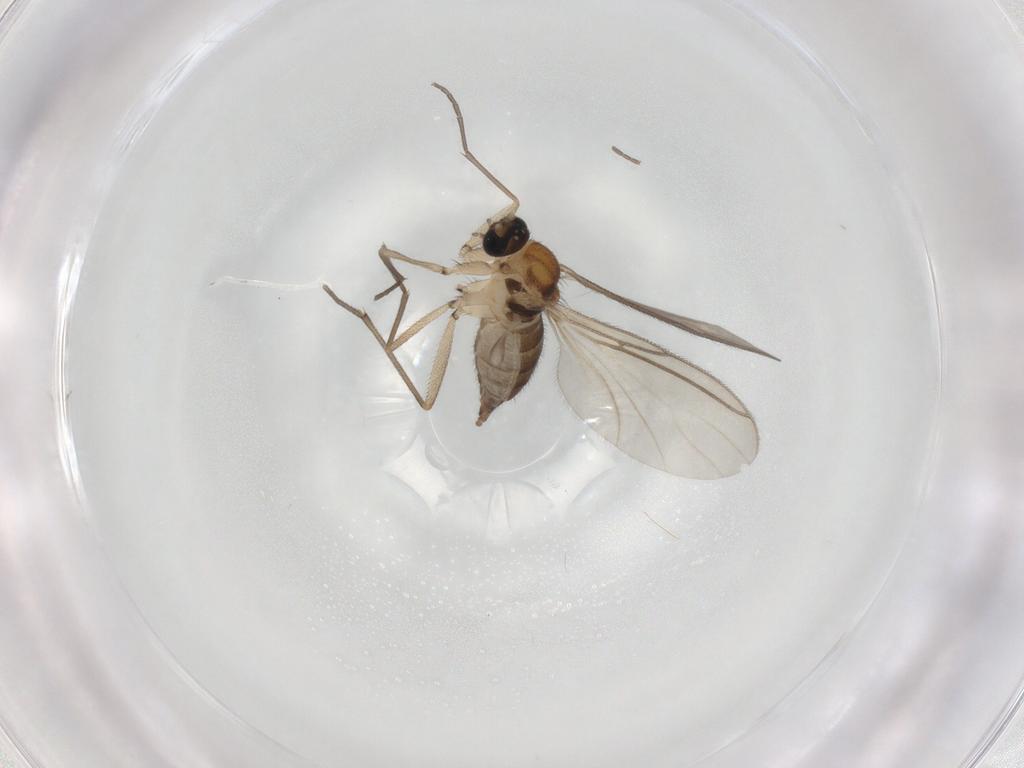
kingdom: Animalia
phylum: Arthropoda
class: Insecta
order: Diptera
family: Sciaridae
